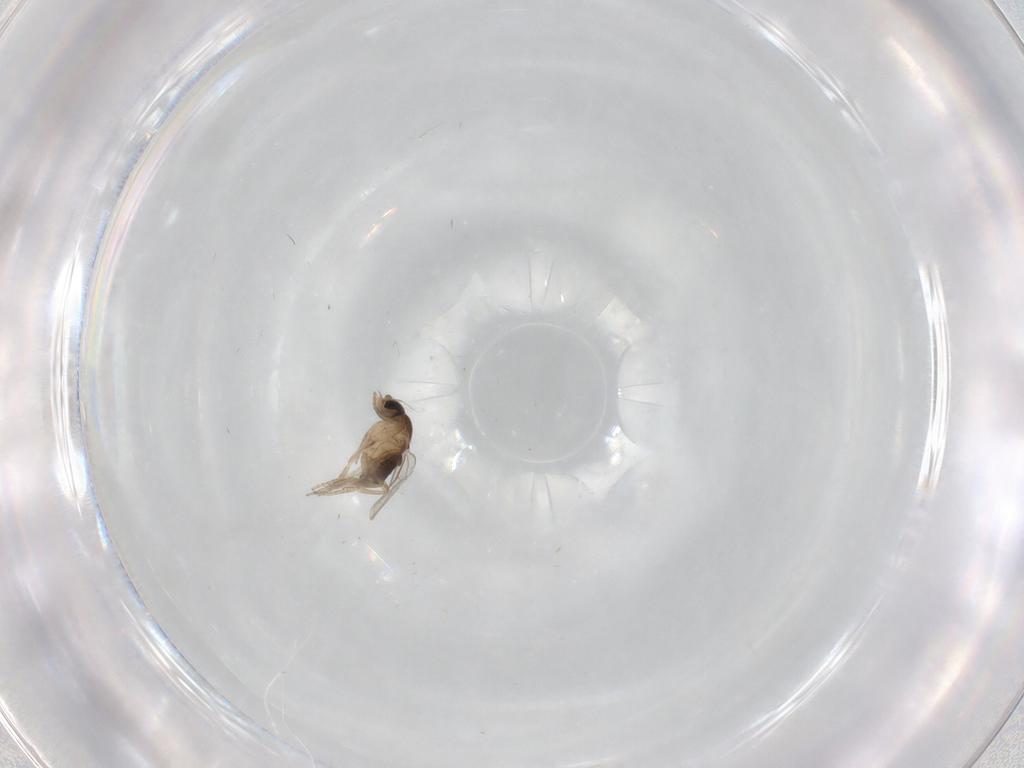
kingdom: Animalia
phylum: Arthropoda
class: Insecta
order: Diptera
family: Phoridae
